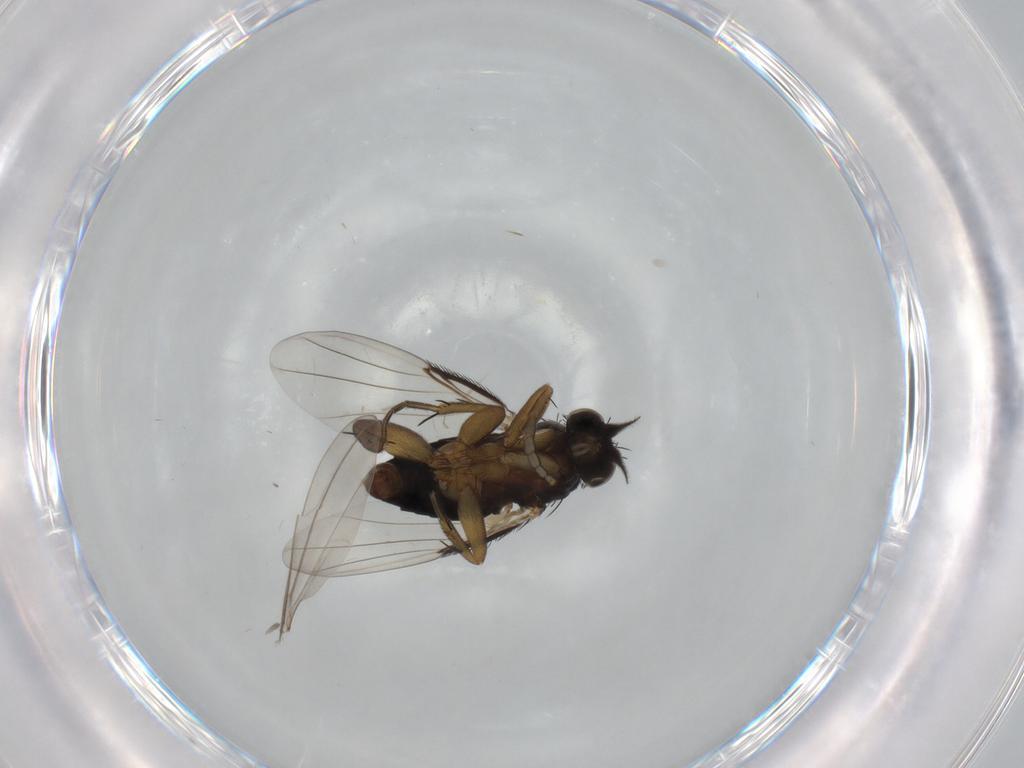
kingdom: Animalia
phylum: Arthropoda
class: Insecta
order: Diptera
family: Phoridae
